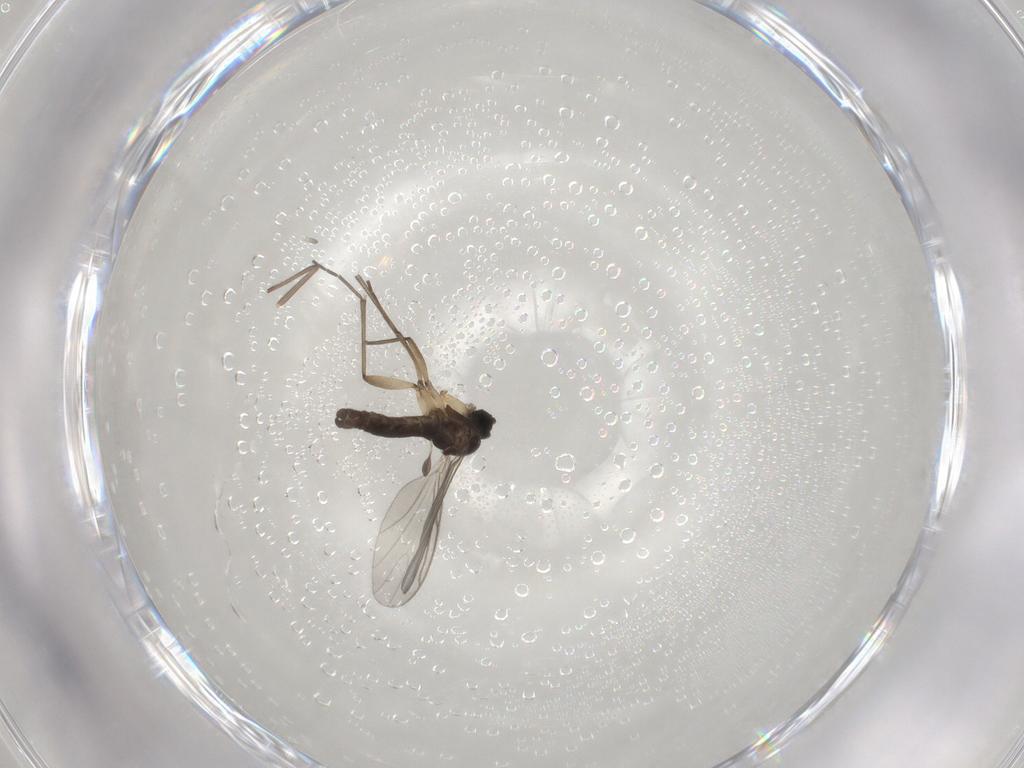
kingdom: Animalia
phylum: Arthropoda
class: Insecta
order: Diptera
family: Sciaridae
